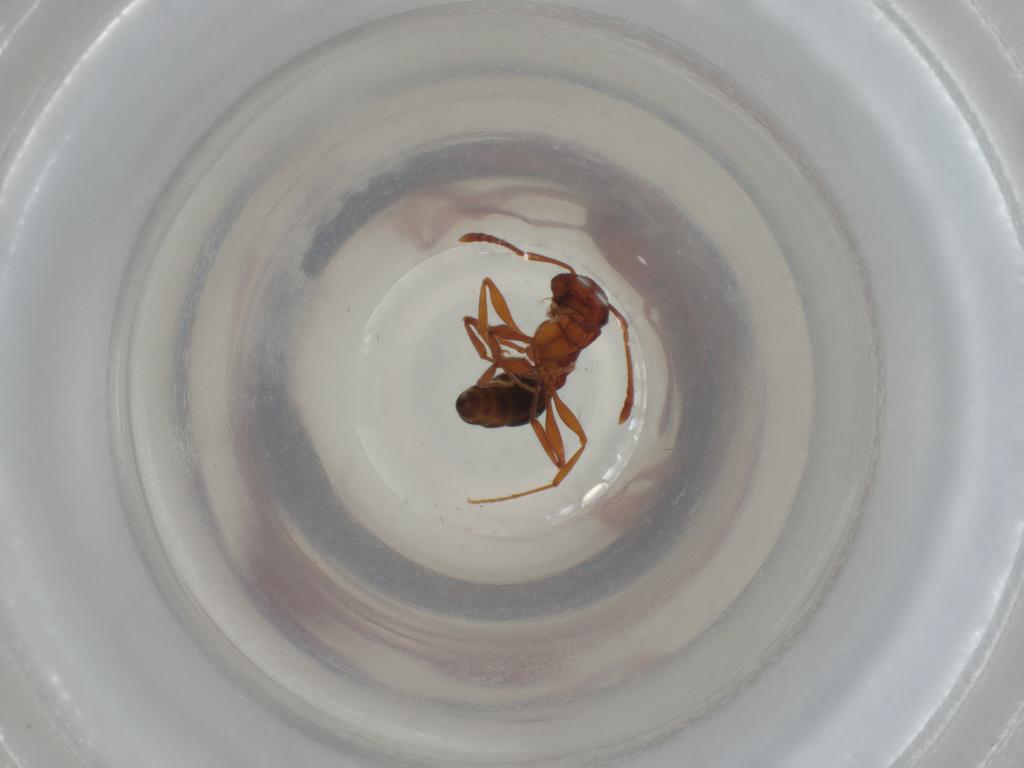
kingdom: Animalia
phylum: Arthropoda
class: Insecta
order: Hymenoptera
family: Formicidae
